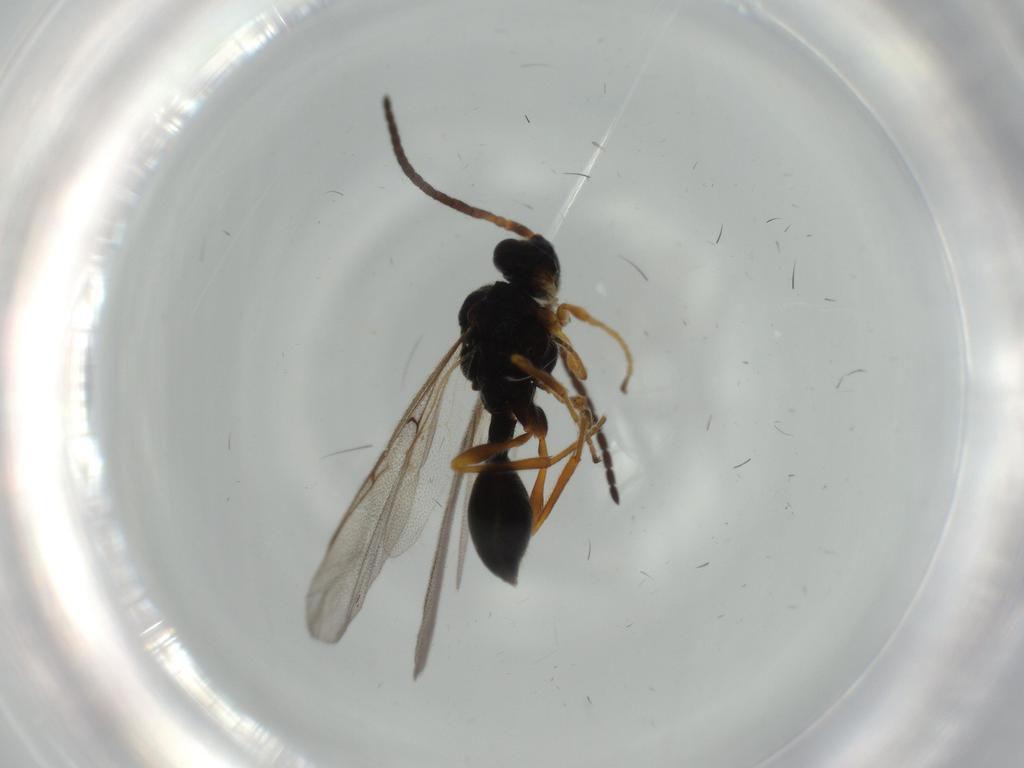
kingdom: Animalia
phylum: Arthropoda
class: Insecta
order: Hymenoptera
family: Diapriidae
